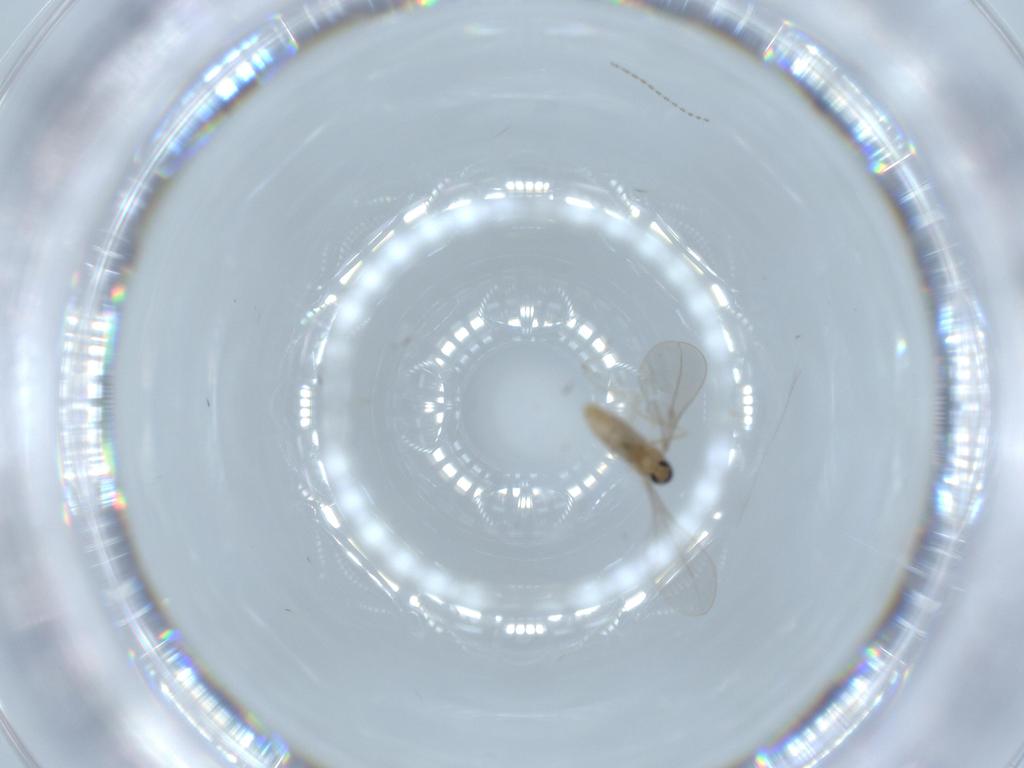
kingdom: Animalia
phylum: Arthropoda
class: Insecta
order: Diptera
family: Cecidomyiidae
